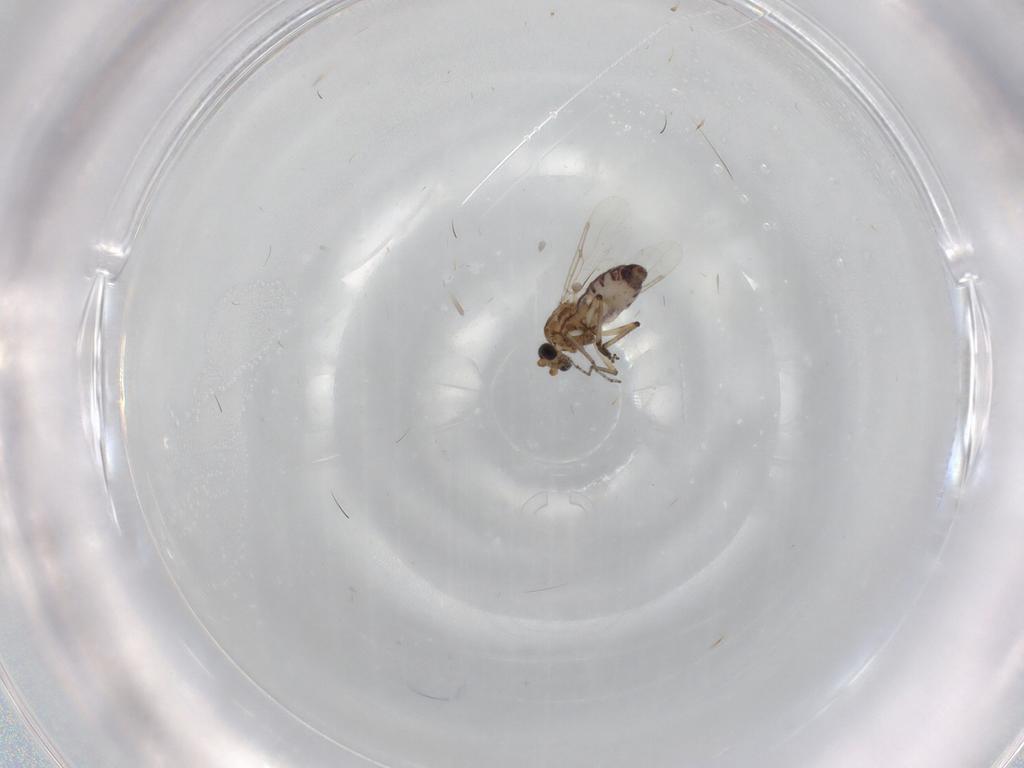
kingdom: Animalia
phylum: Arthropoda
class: Insecta
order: Diptera
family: Ceratopogonidae
